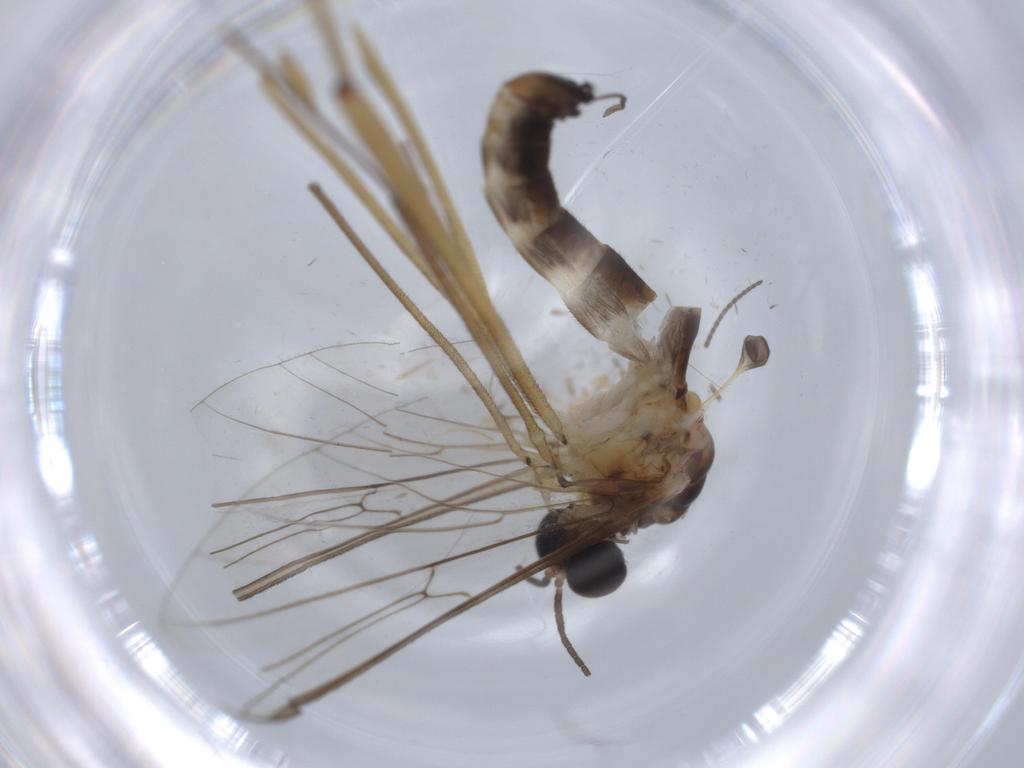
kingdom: Animalia
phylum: Arthropoda
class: Insecta
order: Diptera
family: Blephariceridae
